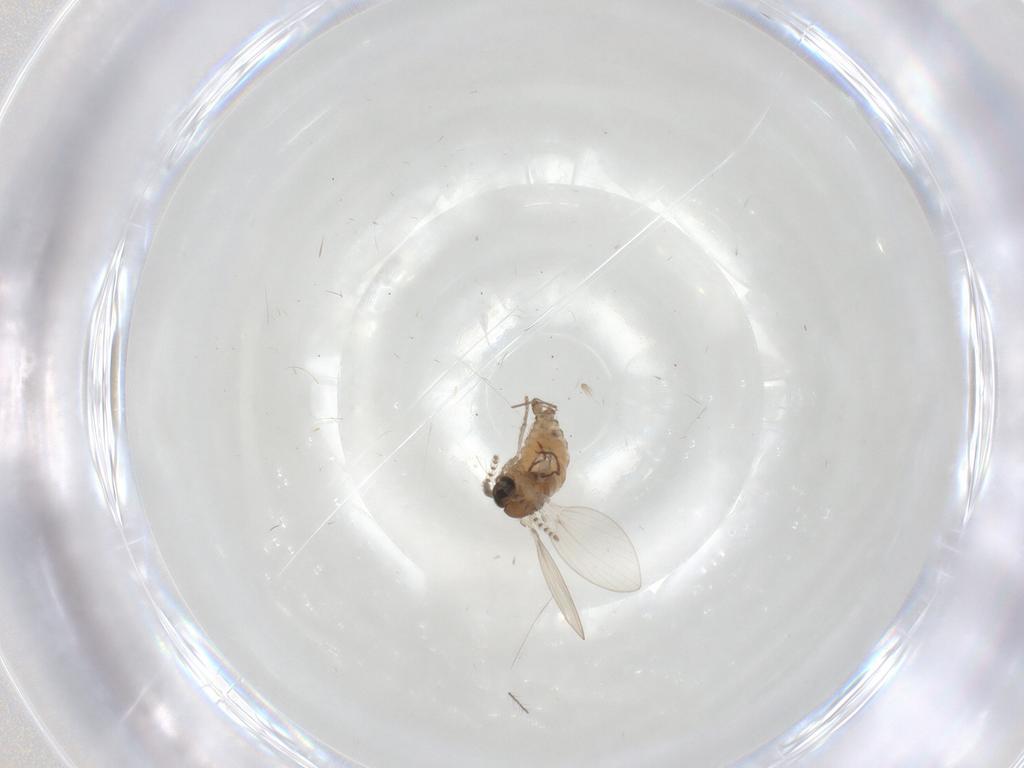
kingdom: Animalia
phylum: Arthropoda
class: Insecta
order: Diptera
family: Psychodidae
